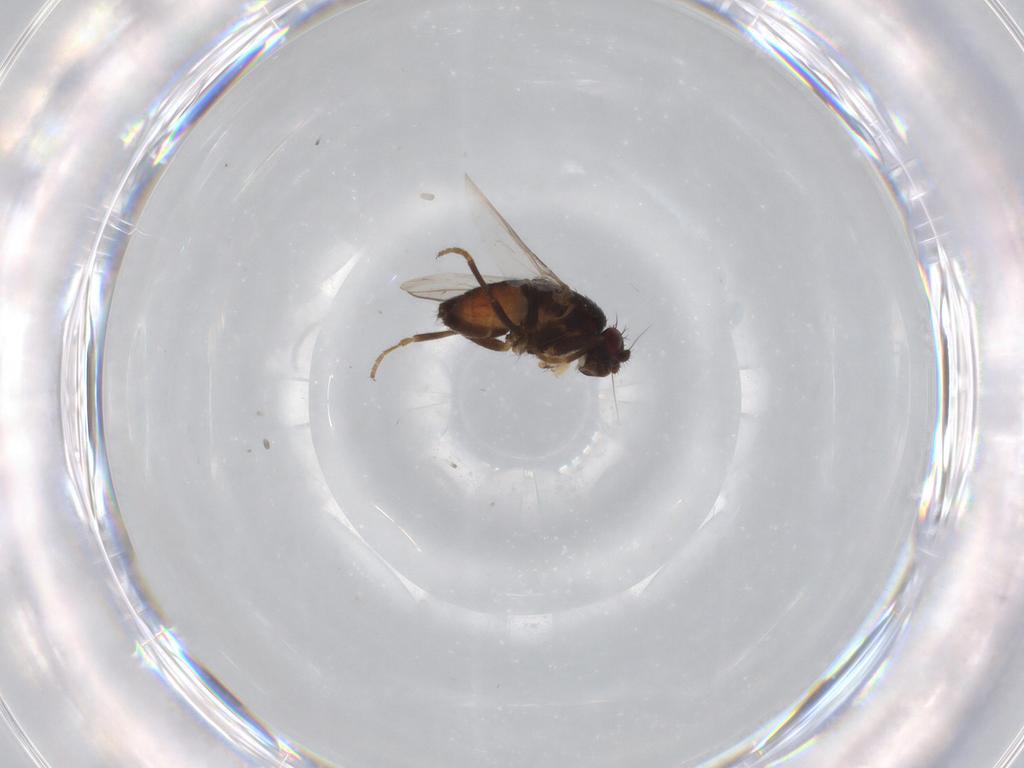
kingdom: Animalia
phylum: Arthropoda
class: Insecta
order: Diptera
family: Sphaeroceridae
